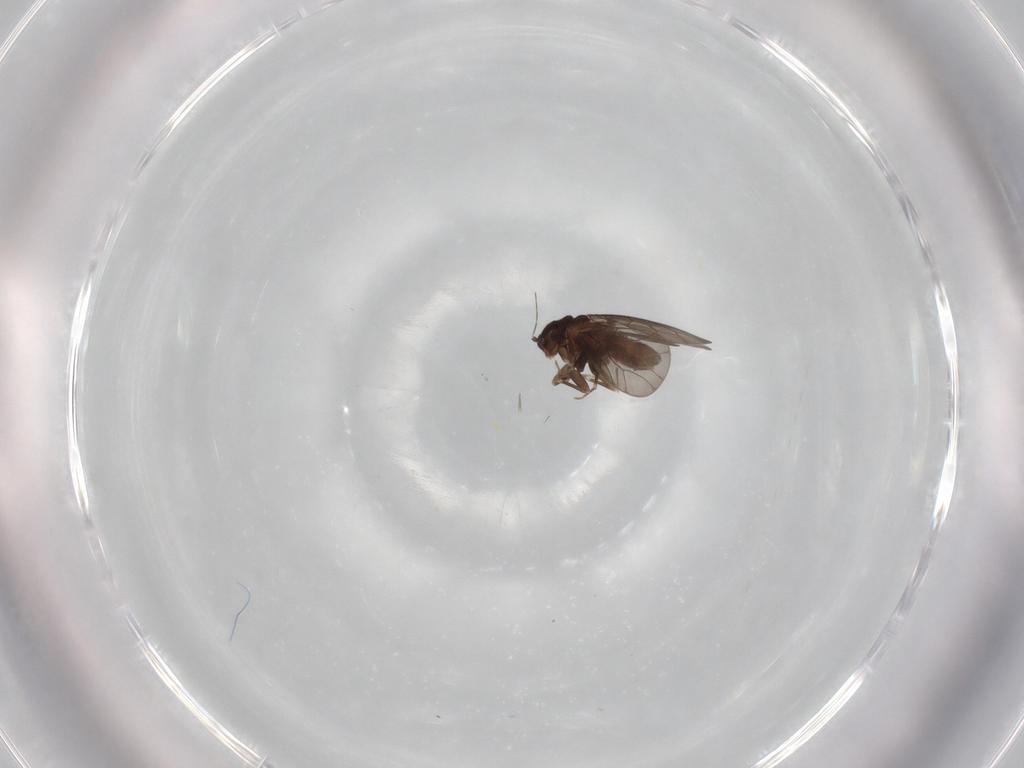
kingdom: Animalia
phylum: Arthropoda
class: Insecta
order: Psocodea
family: Lepidopsocidae
